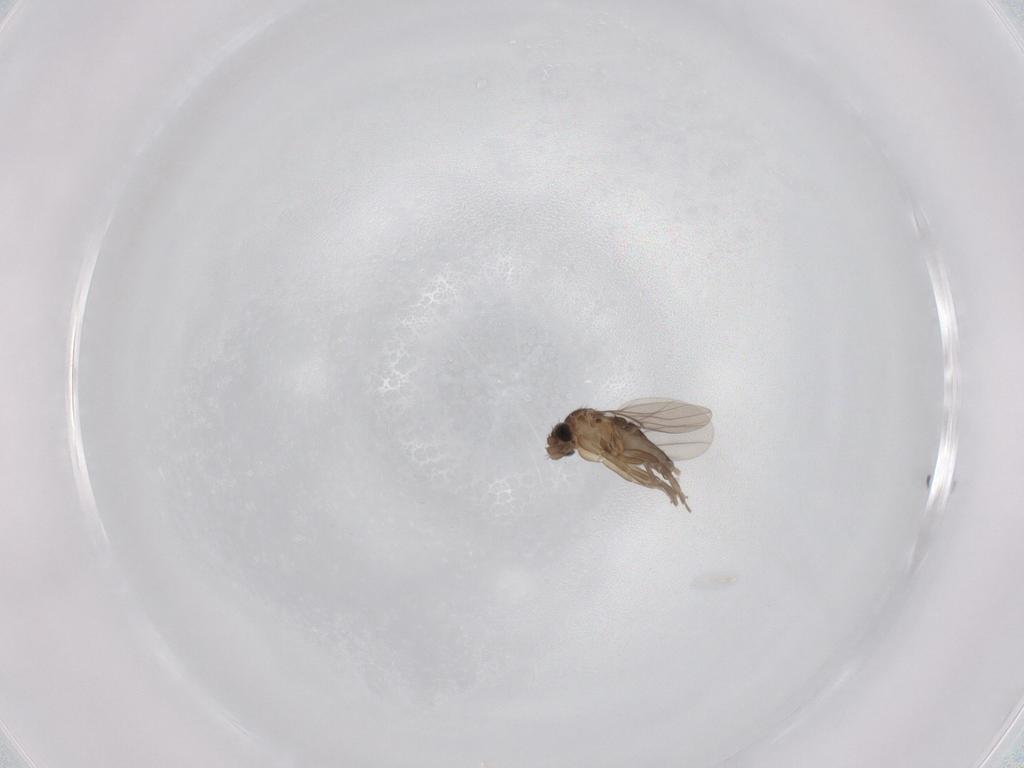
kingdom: Animalia
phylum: Arthropoda
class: Insecta
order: Diptera
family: Phoridae
